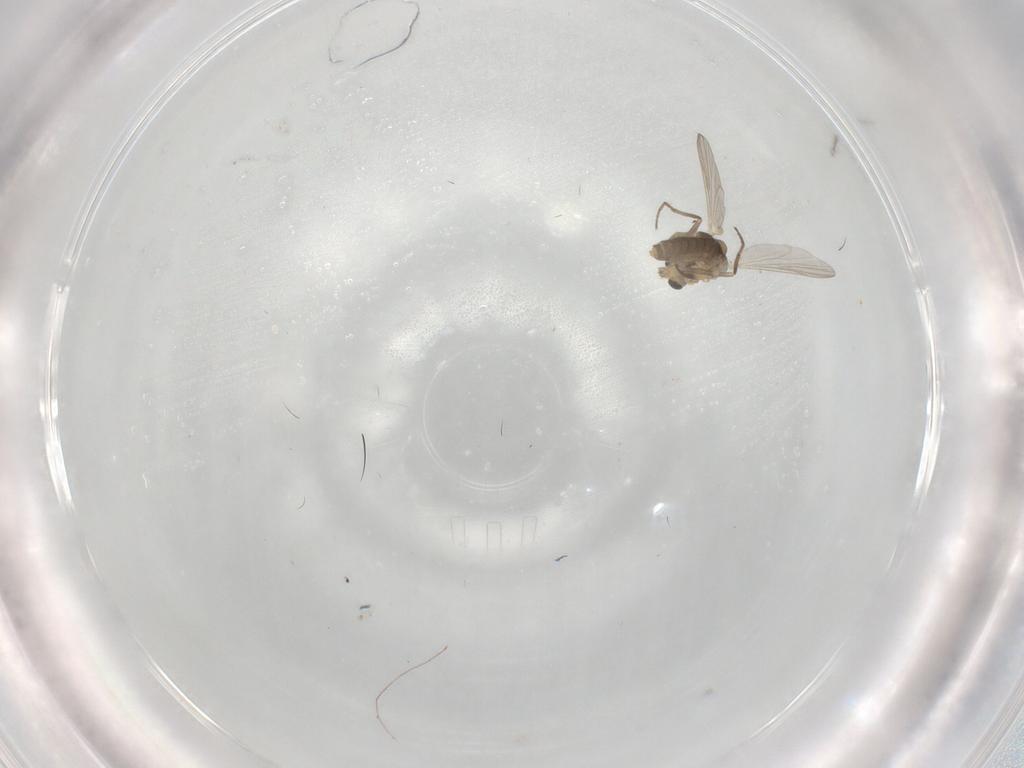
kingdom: Animalia
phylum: Arthropoda
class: Insecta
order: Diptera
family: Chironomidae
